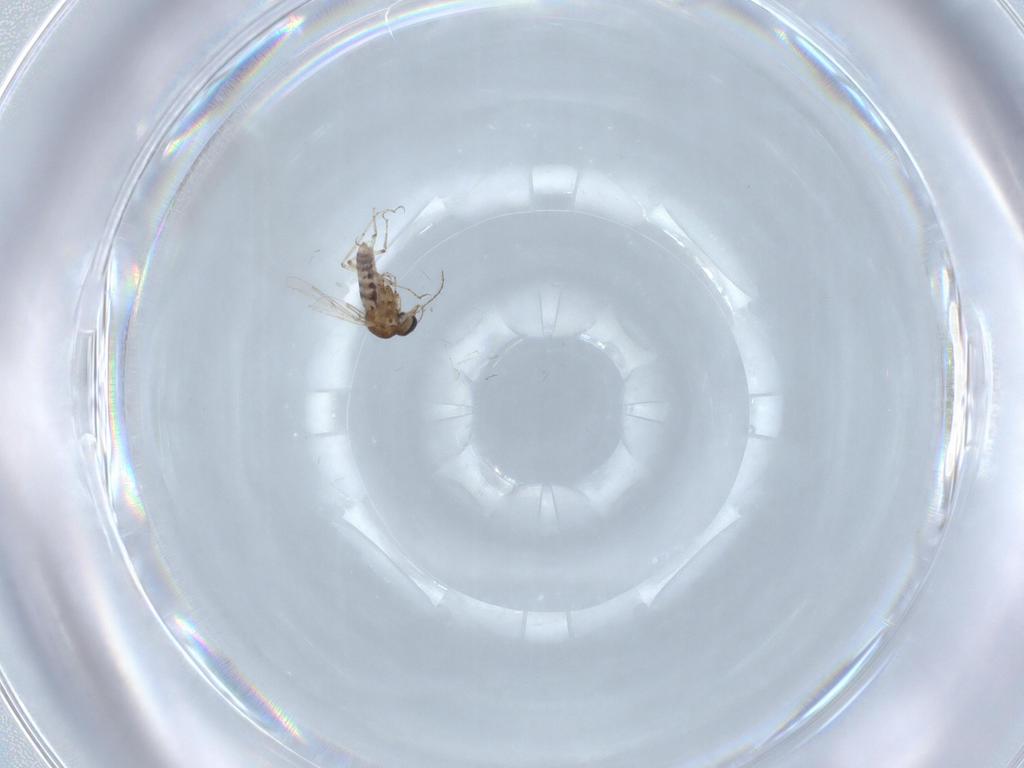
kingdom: Animalia
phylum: Arthropoda
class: Insecta
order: Diptera
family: Ceratopogonidae
